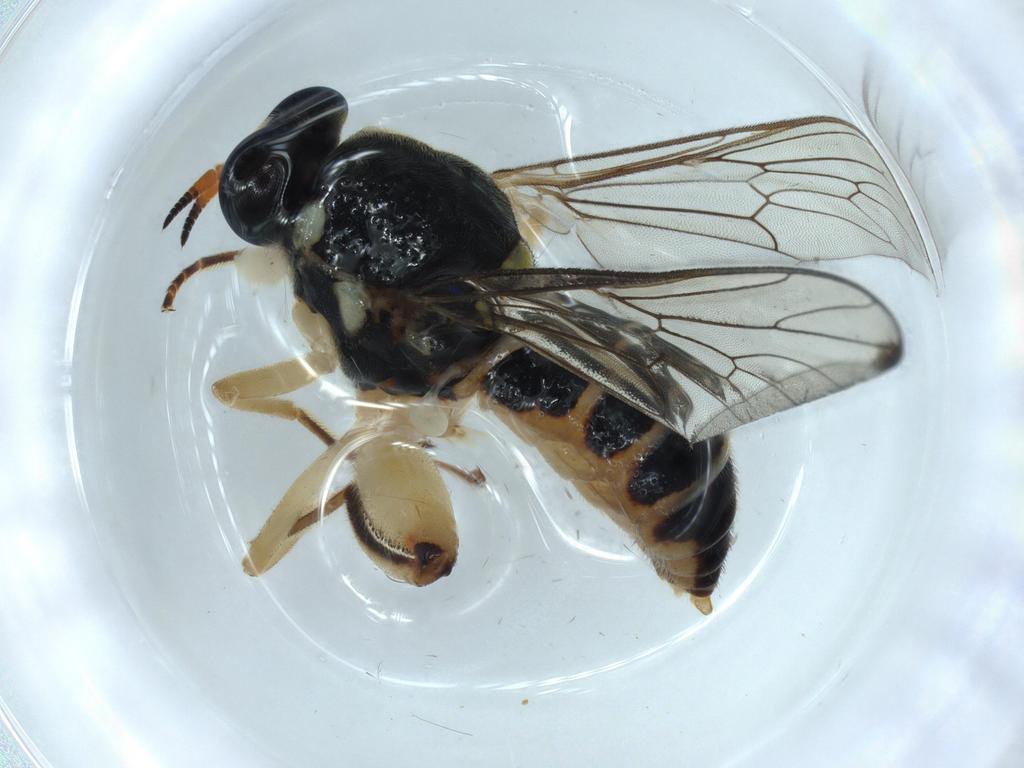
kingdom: Animalia
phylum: Arthropoda
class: Insecta
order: Diptera
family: Cecidomyiidae
